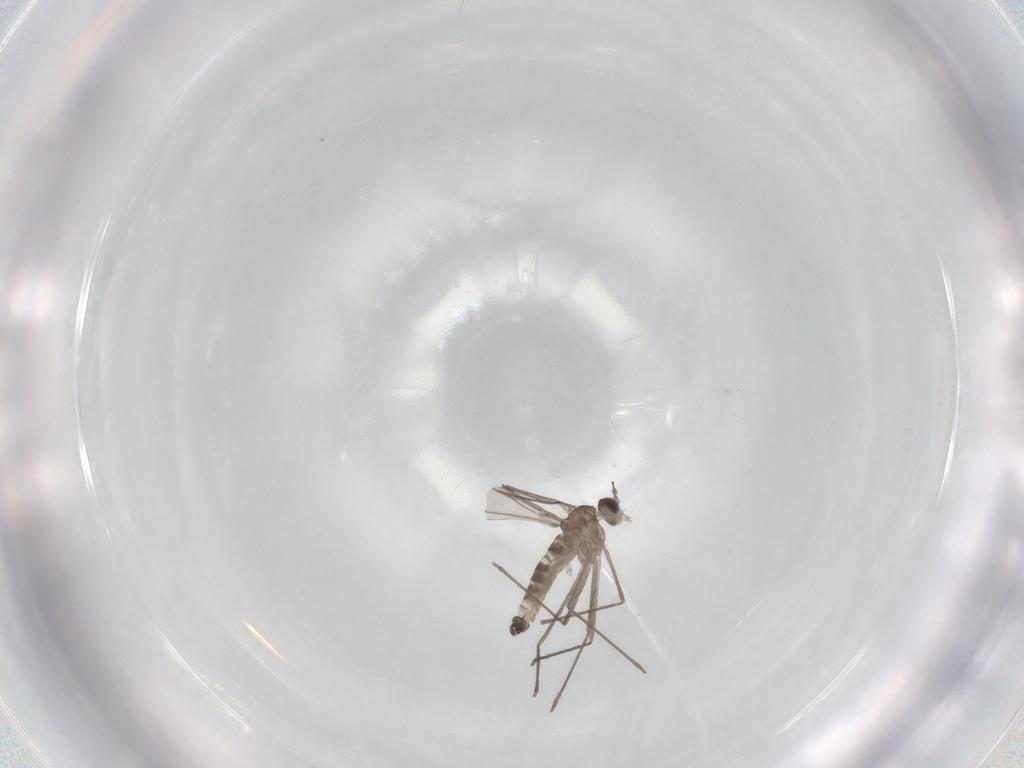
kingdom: Animalia
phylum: Arthropoda
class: Insecta
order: Diptera
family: Cecidomyiidae
